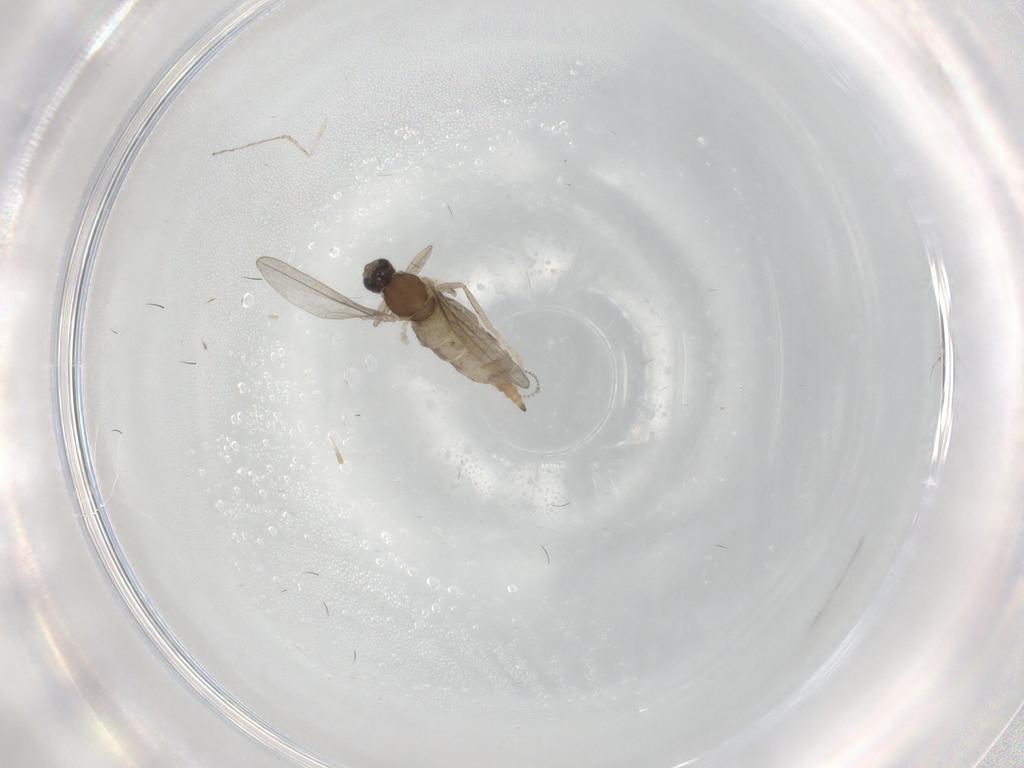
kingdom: Animalia
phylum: Arthropoda
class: Insecta
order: Diptera
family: Cecidomyiidae
